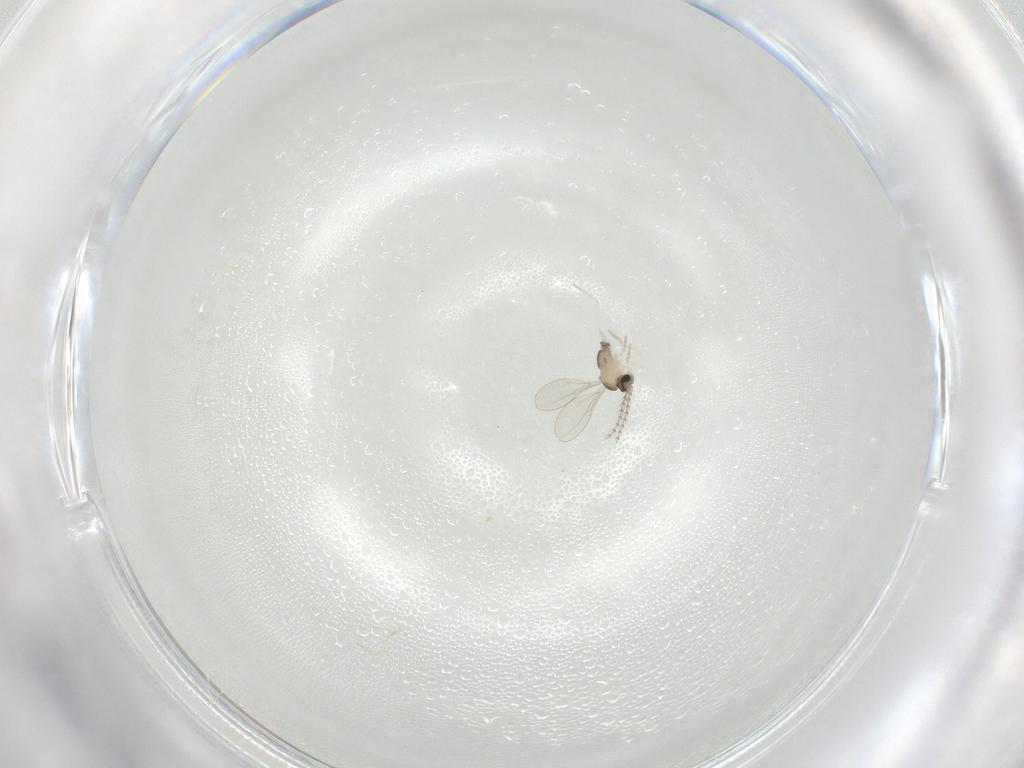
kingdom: Animalia
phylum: Arthropoda
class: Insecta
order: Diptera
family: Cecidomyiidae
